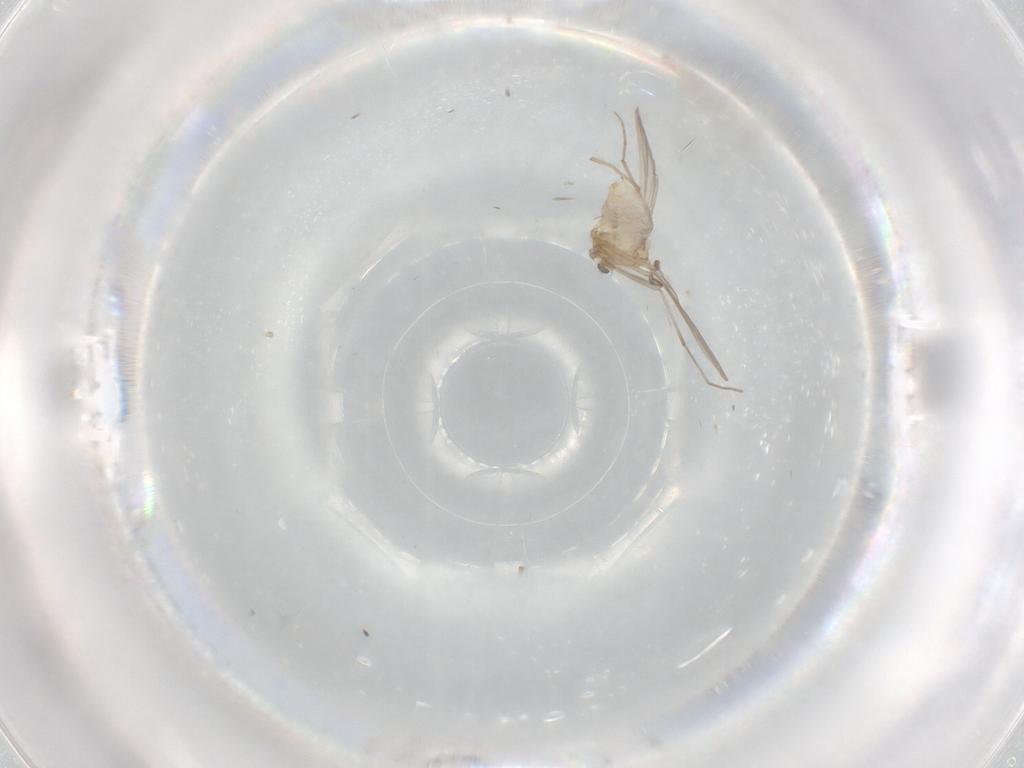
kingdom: Animalia
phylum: Arthropoda
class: Insecta
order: Diptera
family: Chironomidae
